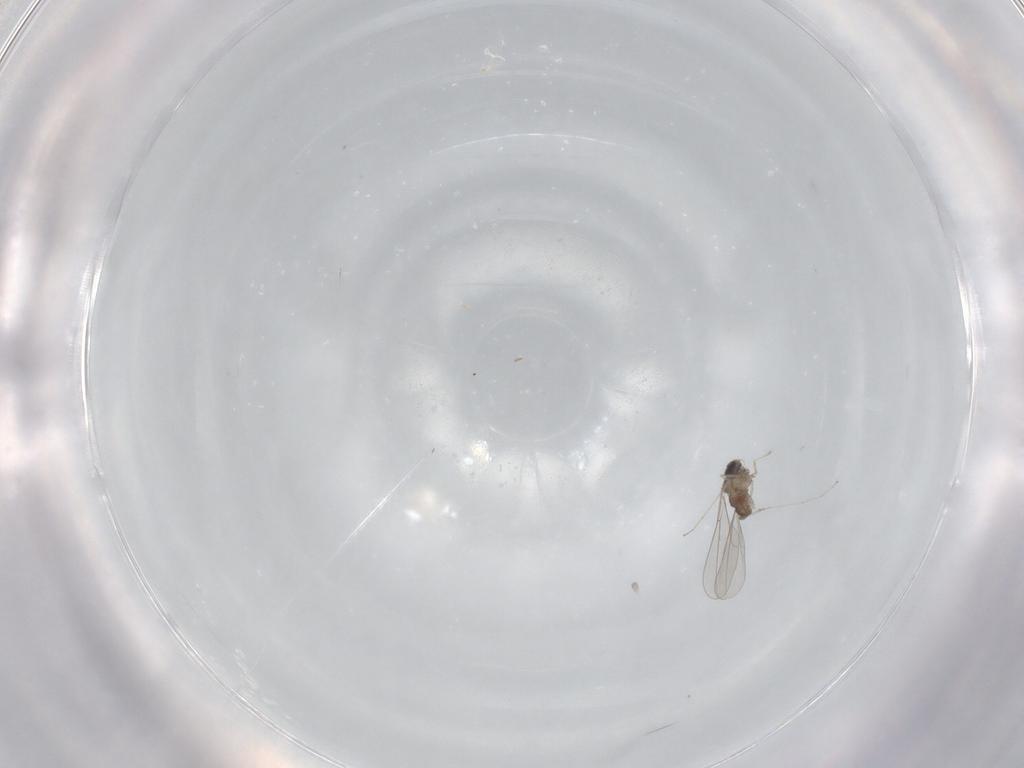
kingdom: Animalia
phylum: Arthropoda
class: Insecta
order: Diptera
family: Cecidomyiidae
